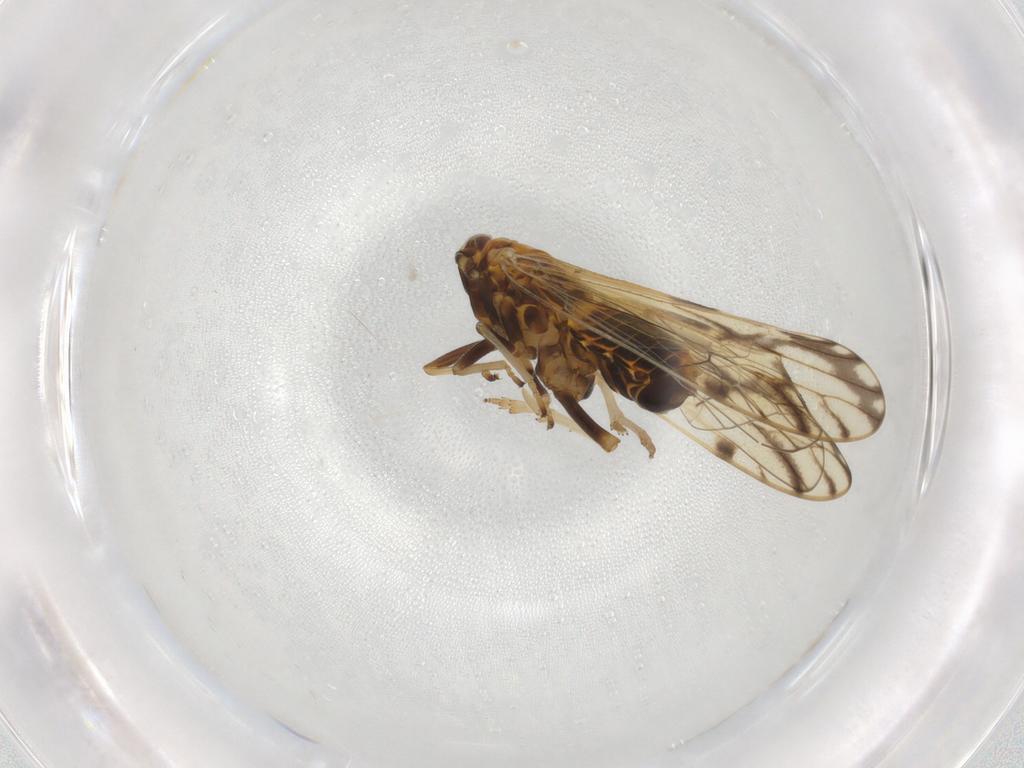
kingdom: Animalia
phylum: Arthropoda
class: Insecta
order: Hemiptera
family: Delphacidae
